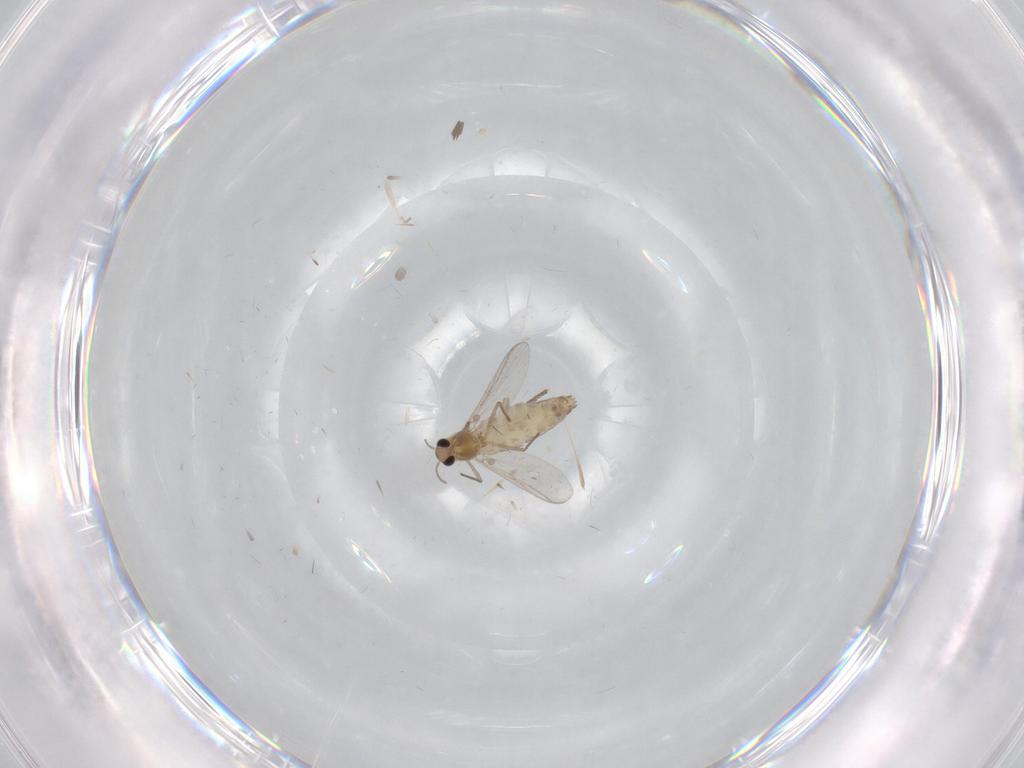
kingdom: Animalia
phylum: Arthropoda
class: Insecta
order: Diptera
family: Chironomidae
